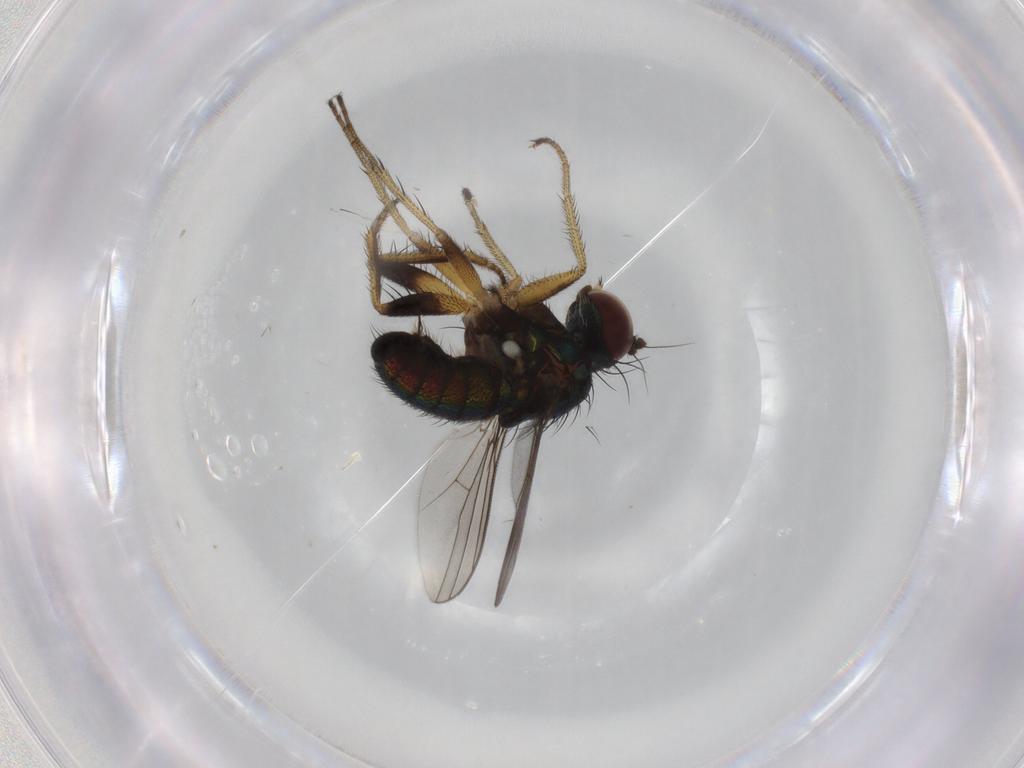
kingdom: Animalia
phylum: Arthropoda
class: Insecta
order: Diptera
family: Dolichopodidae
